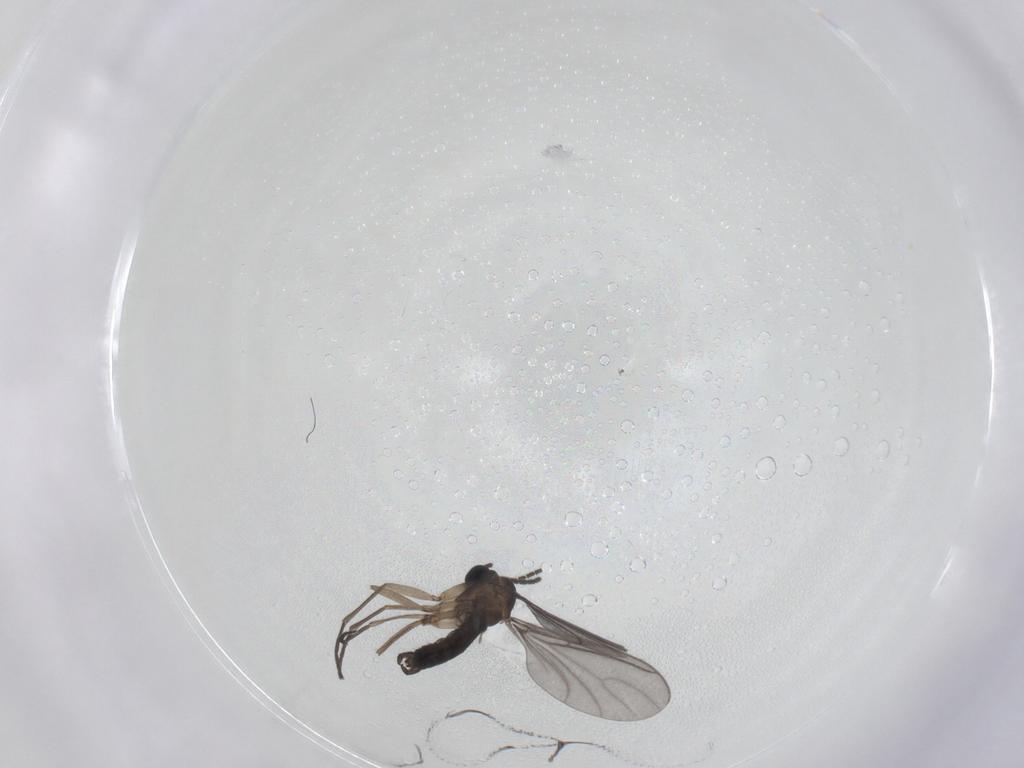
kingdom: Animalia
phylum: Arthropoda
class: Insecta
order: Diptera
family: Sciaridae
